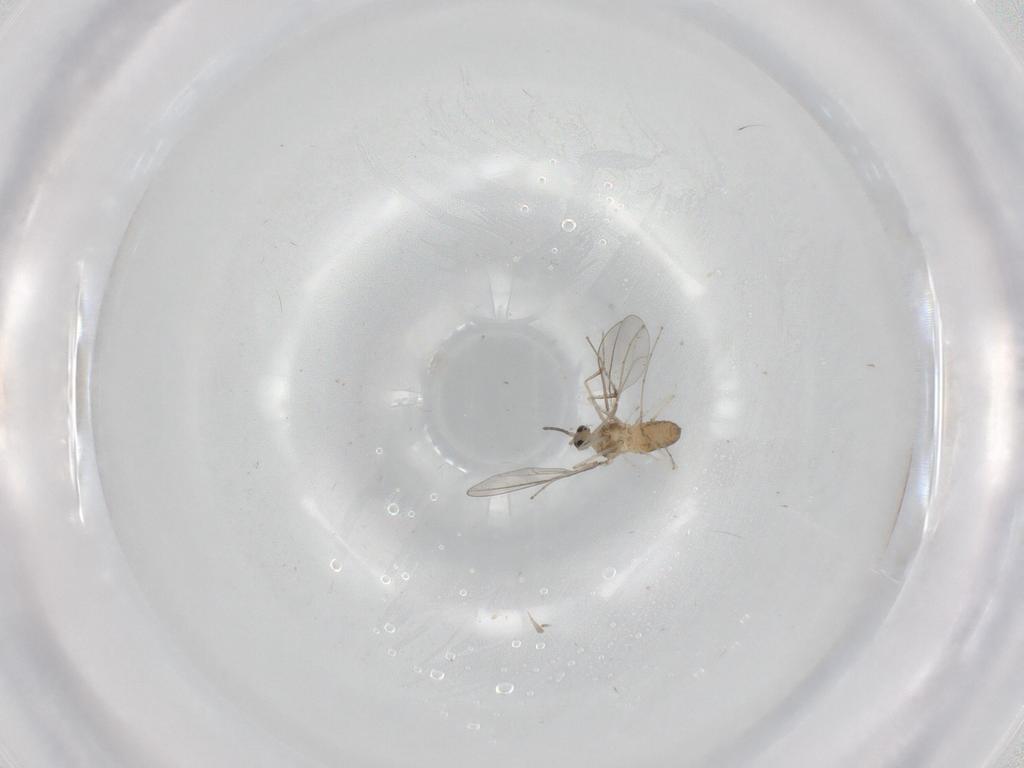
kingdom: Animalia
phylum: Arthropoda
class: Insecta
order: Diptera
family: Cecidomyiidae
